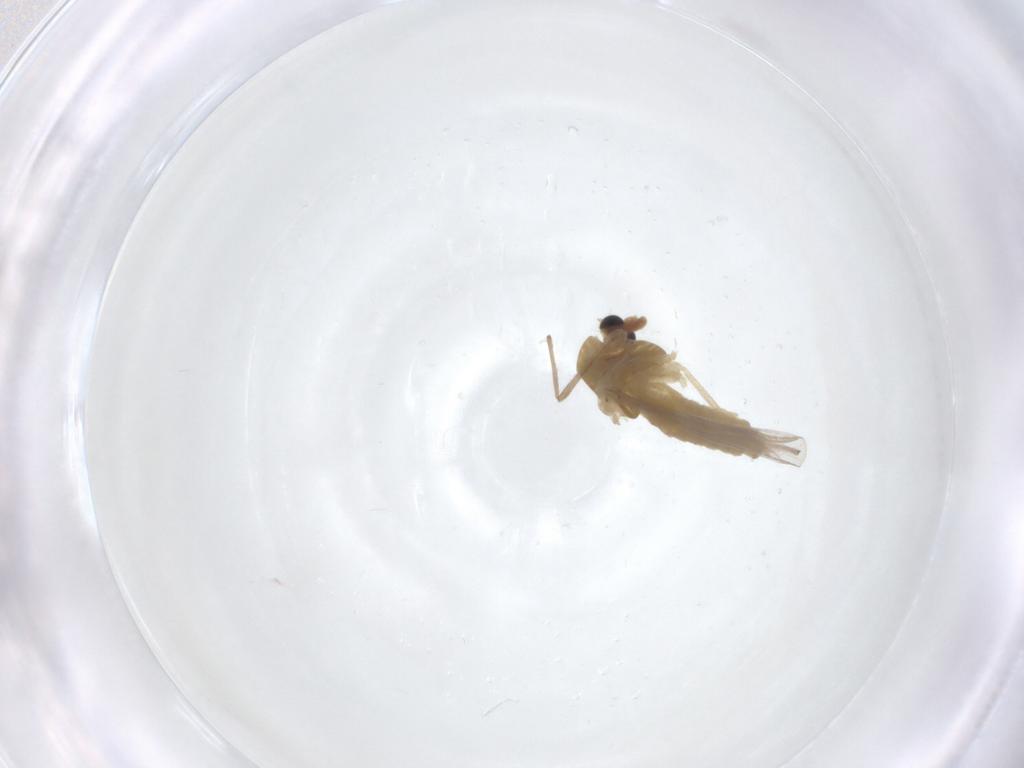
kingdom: Animalia
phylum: Arthropoda
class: Insecta
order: Diptera
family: Chironomidae
